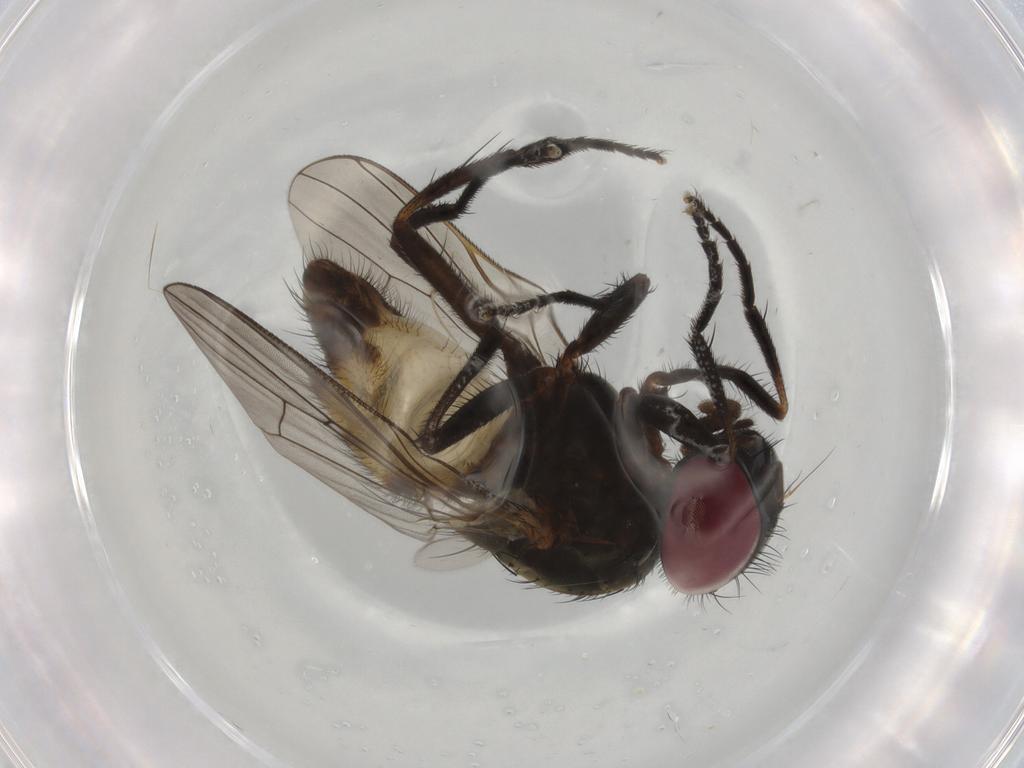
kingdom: Animalia
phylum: Arthropoda
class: Insecta
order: Diptera
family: Fannia
